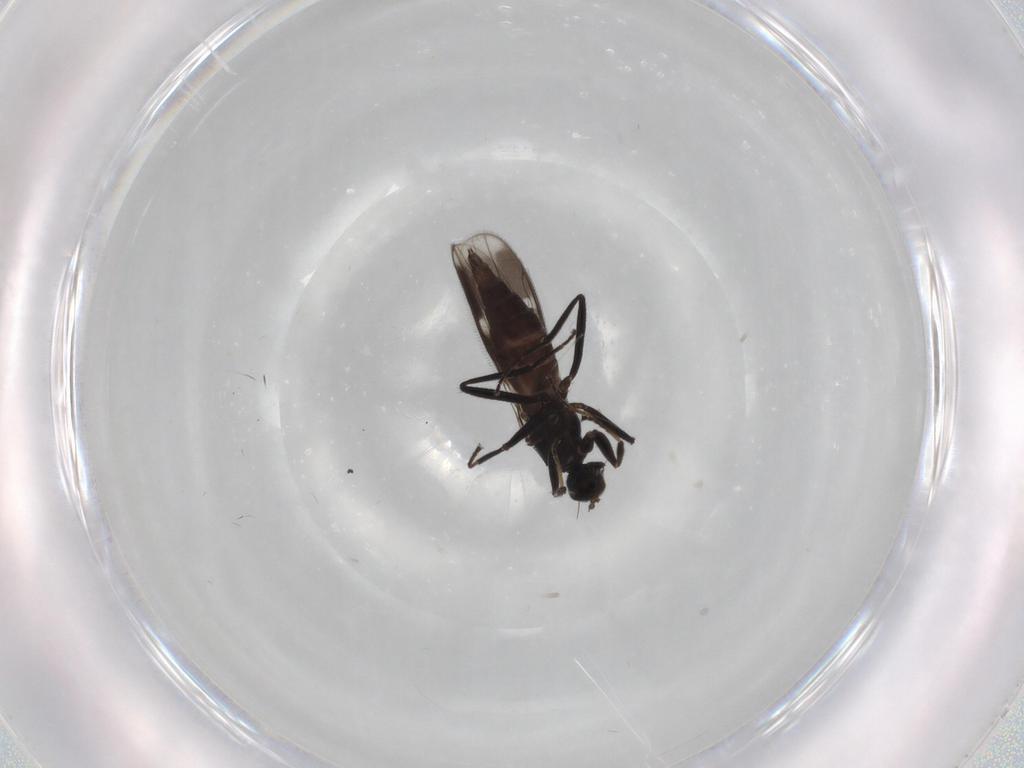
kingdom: Animalia
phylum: Arthropoda
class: Insecta
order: Diptera
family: Hybotidae
